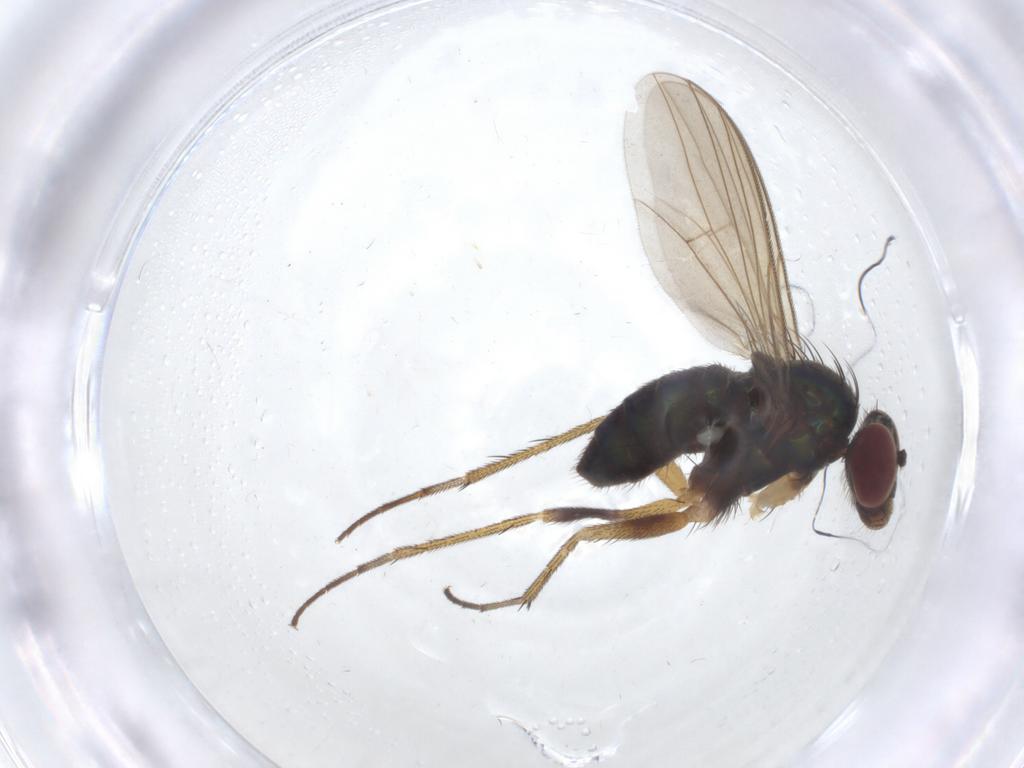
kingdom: Animalia
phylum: Arthropoda
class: Insecta
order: Diptera
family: Dolichopodidae
